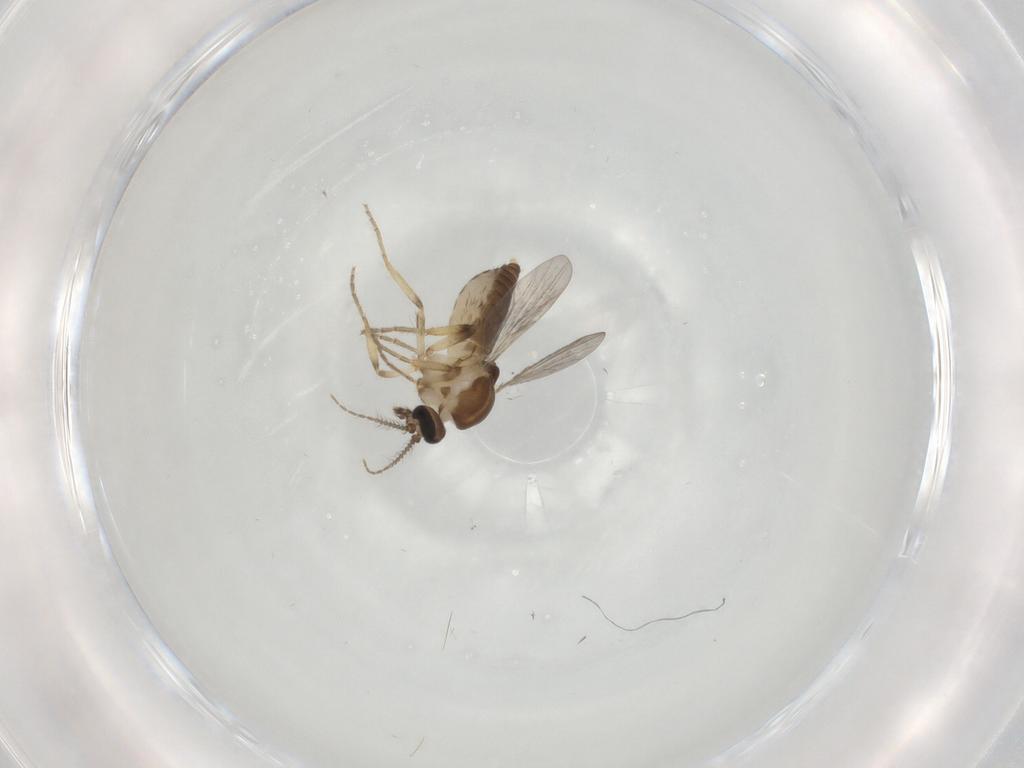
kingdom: Animalia
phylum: Arthropoda
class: Insecta
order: Diptera
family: Ceratopogonidae
